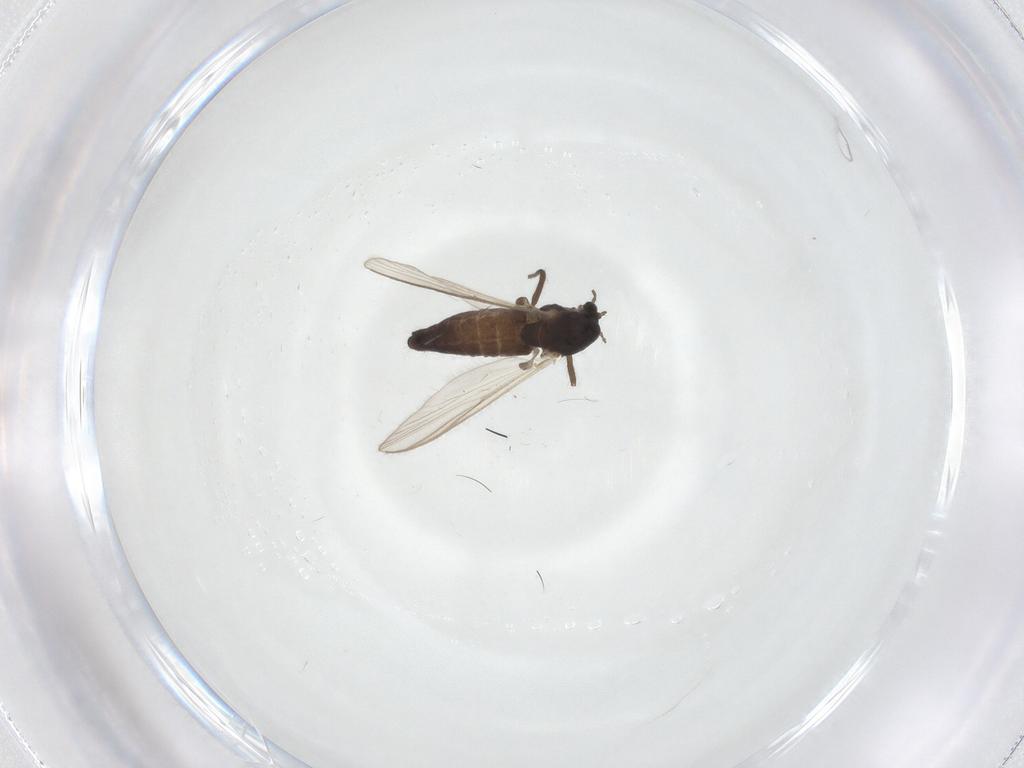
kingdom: Animalia
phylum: Arthropoda
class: Insecta
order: Diptera
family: Chironomidae
